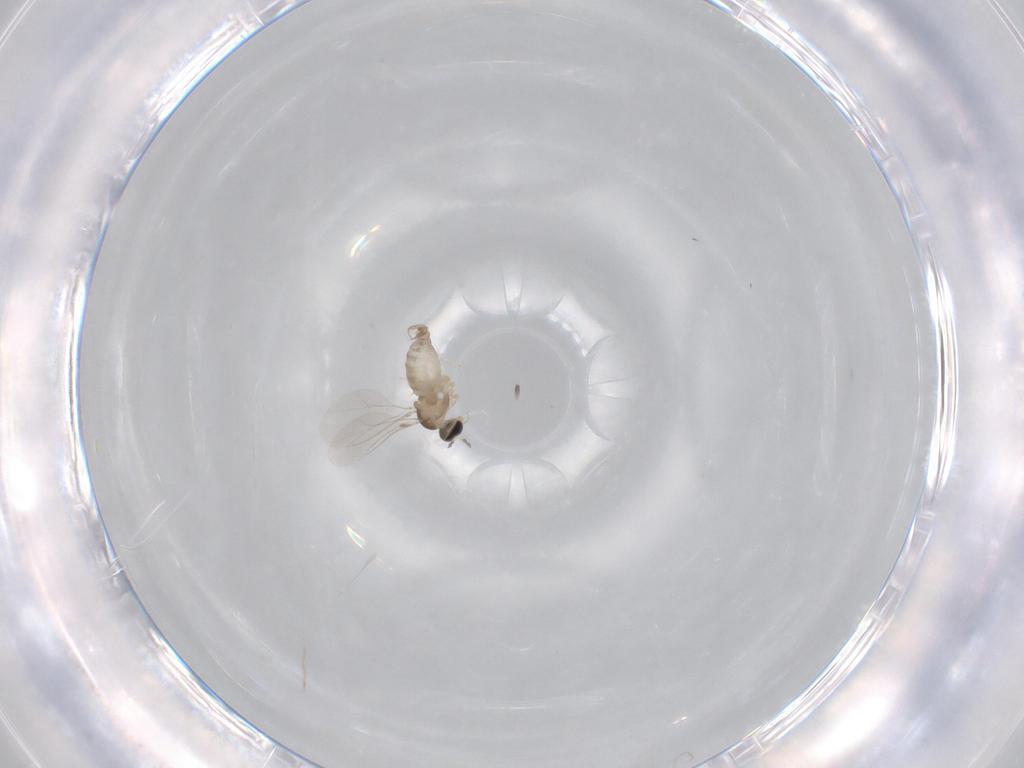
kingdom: Animalia
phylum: Arthropoda
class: Insecta
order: Diptera
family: Cecidomyiidae
